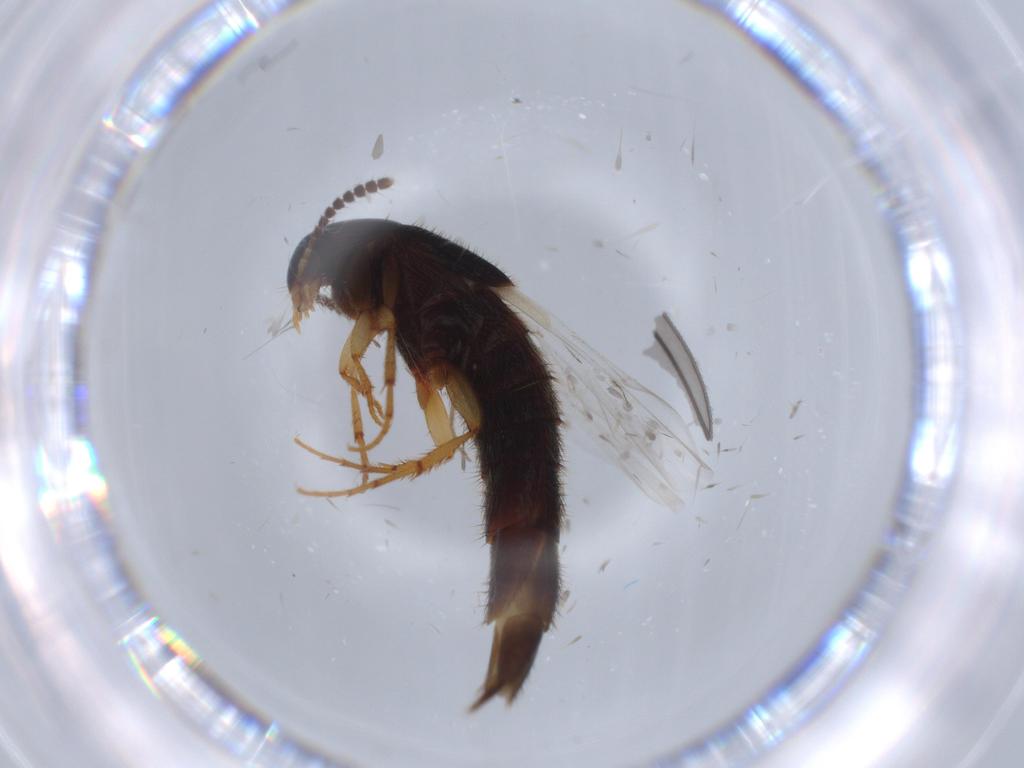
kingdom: Animalia
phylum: Arthropoda
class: Insecta
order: Coleoptera
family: Staphylinidae
